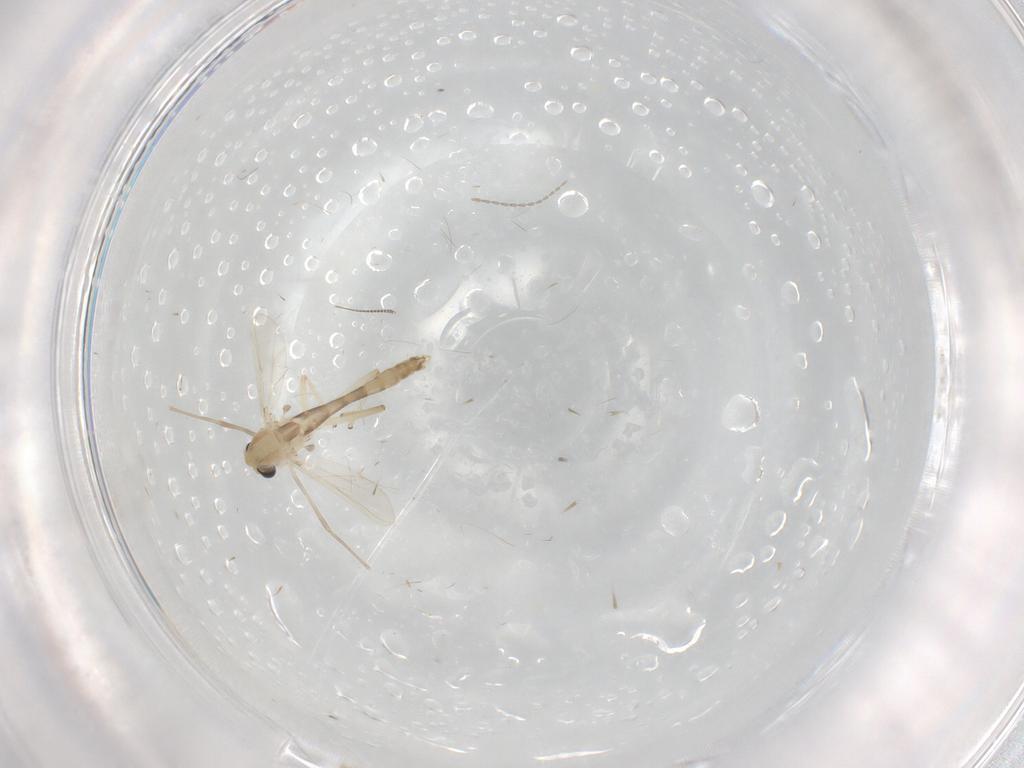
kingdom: Animalia
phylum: Arthropoda
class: Insecta
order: Diptera
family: Chironomidae
